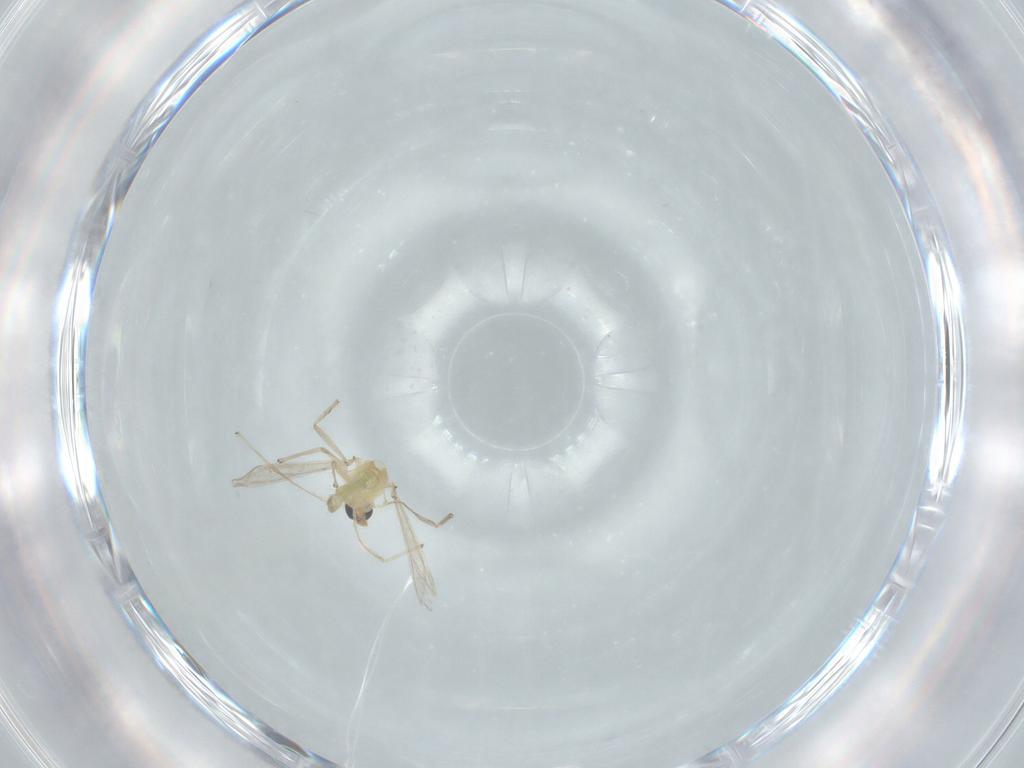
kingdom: Animalia
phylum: Arthropoda
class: Insecta
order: Diptera
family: Chironomidae
